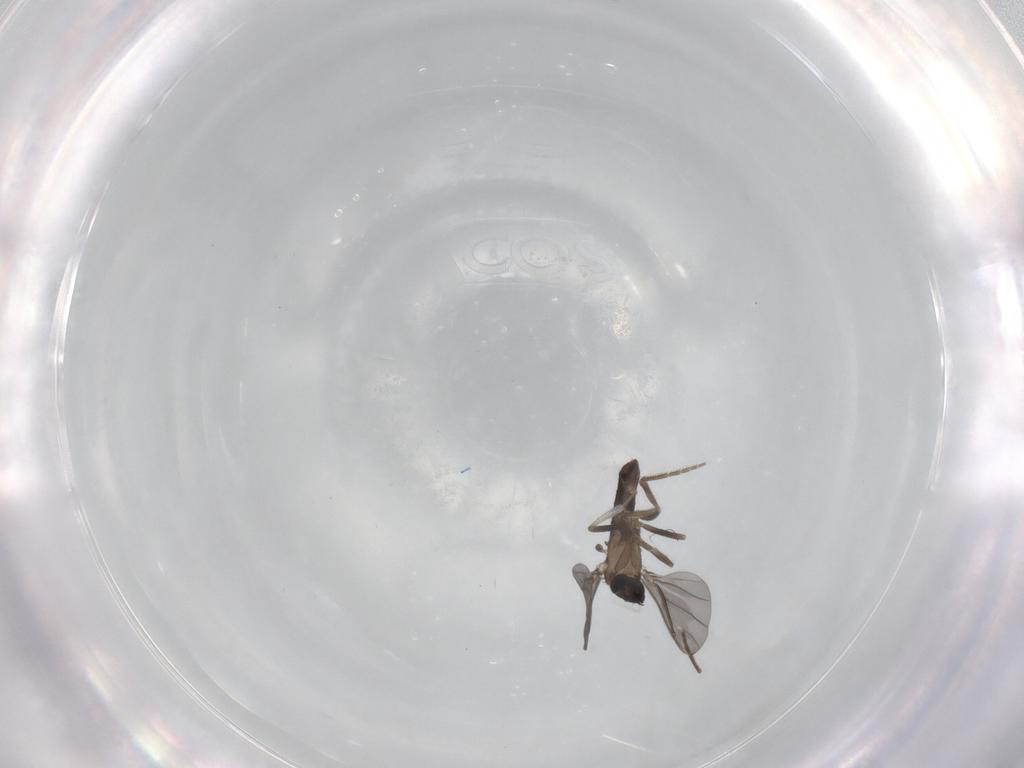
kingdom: Animalia
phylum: Arthropoda
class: Insecta
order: Diptera
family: Phoridae
